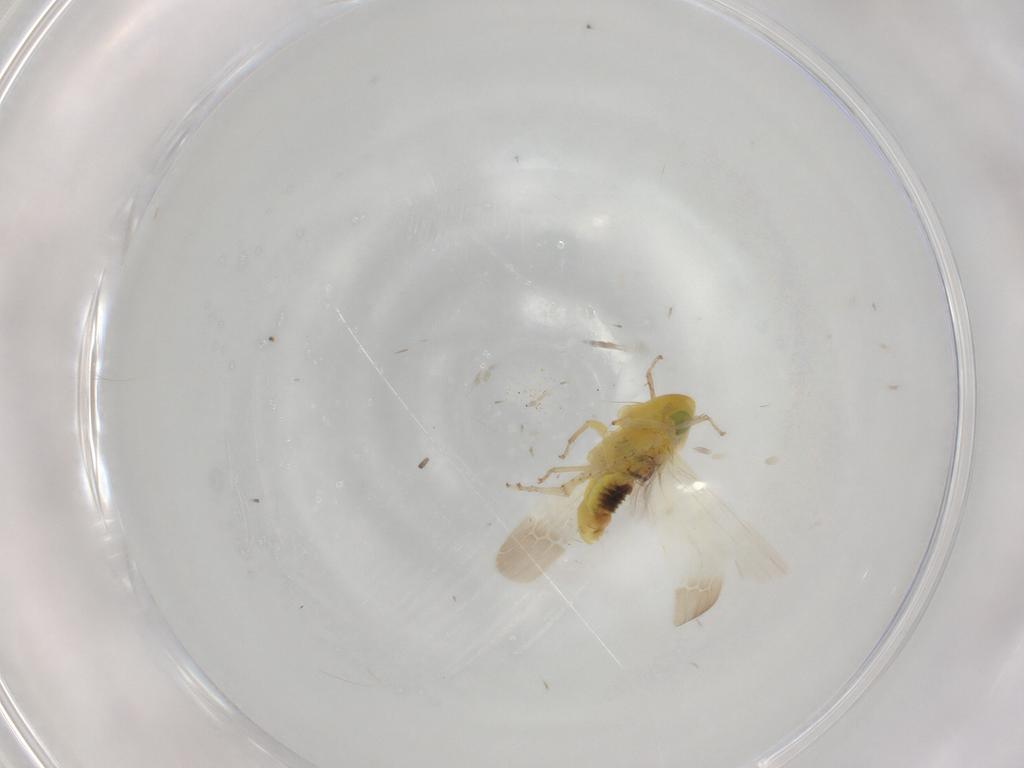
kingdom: Animalia
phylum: Arthropoda
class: Insecta
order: Hemiptera
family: Cicadellidae
